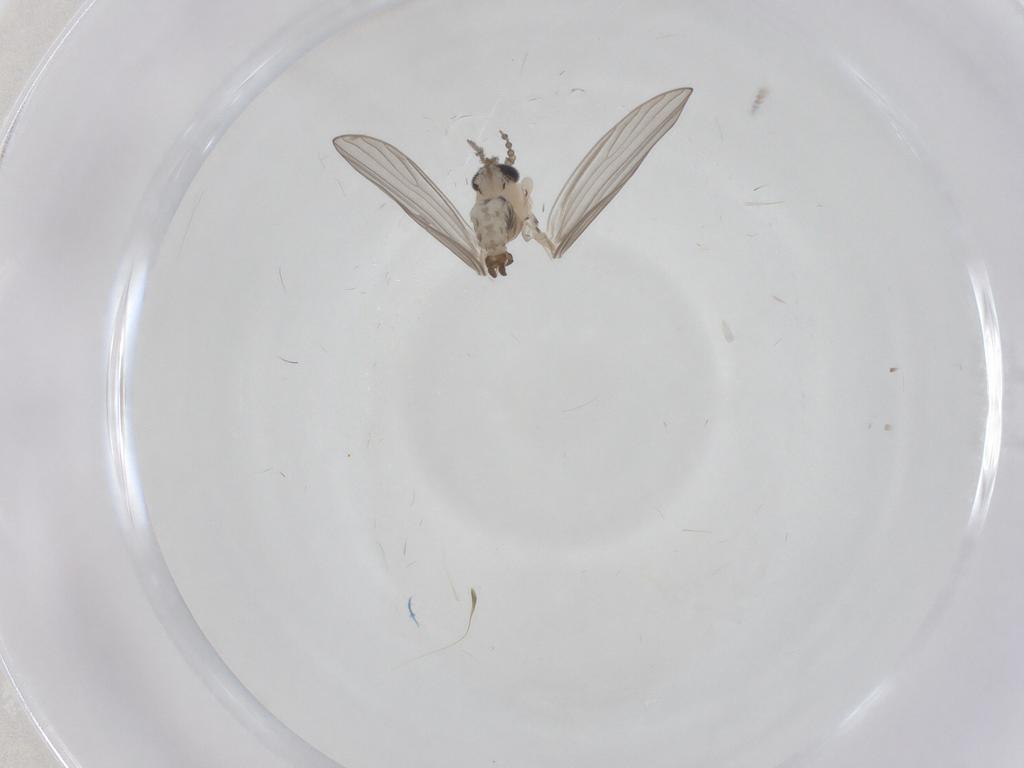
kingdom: Animalia
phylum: Arthropoda
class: Insecta
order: Diptera
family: Psychodidae
